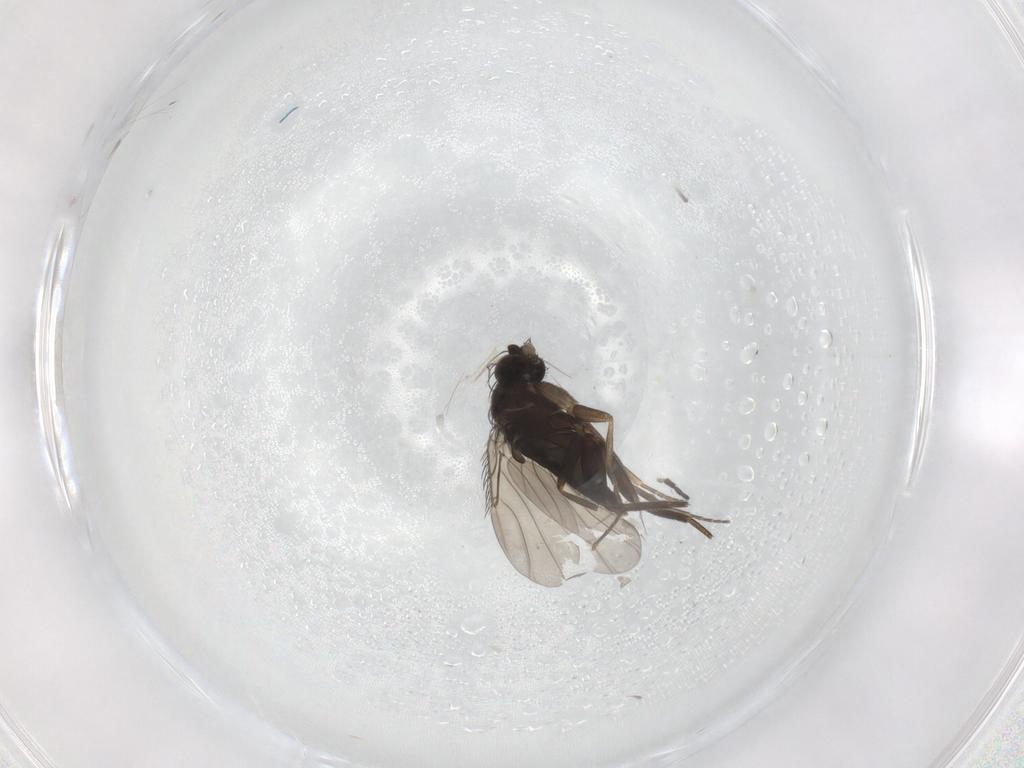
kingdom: Animalia
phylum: Arthropoda
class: Insecta
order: Diptera
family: Phoridae
